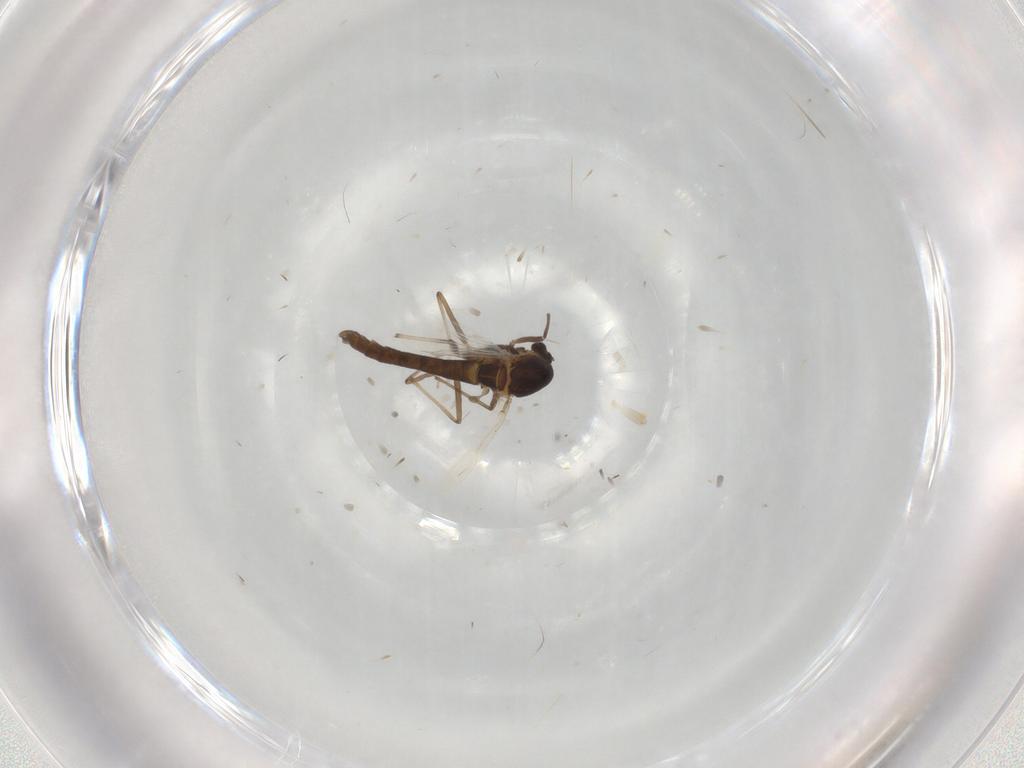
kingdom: Animalia
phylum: Arthropoda
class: Insecta
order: Diptera
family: Chironomidae
